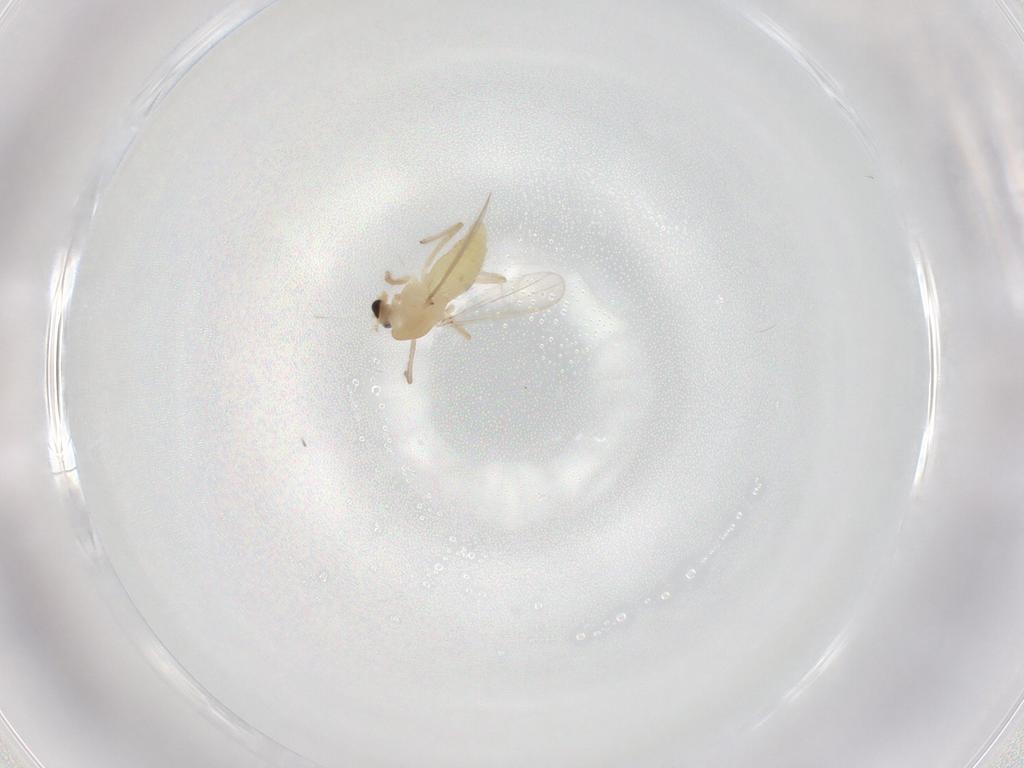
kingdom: Animalia
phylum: Arthropoda
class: Insecta
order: Diptera
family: Chironomidae
